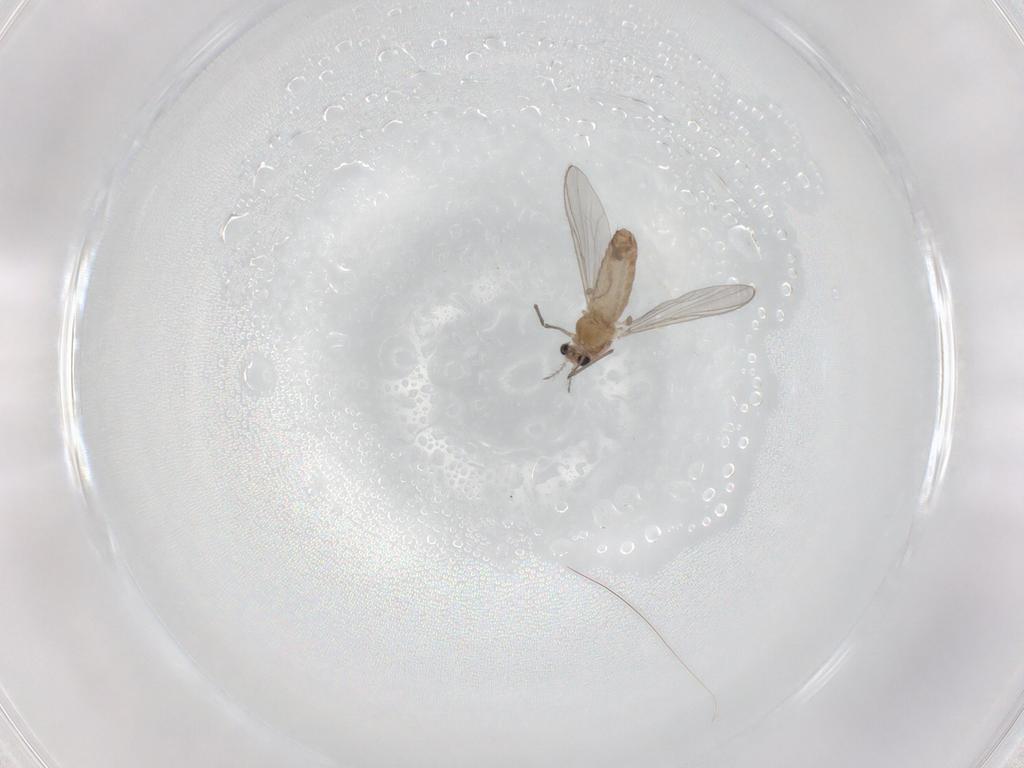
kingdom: Animalia
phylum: Arthropoda
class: Insecta
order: Diptera
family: Chironomidae
